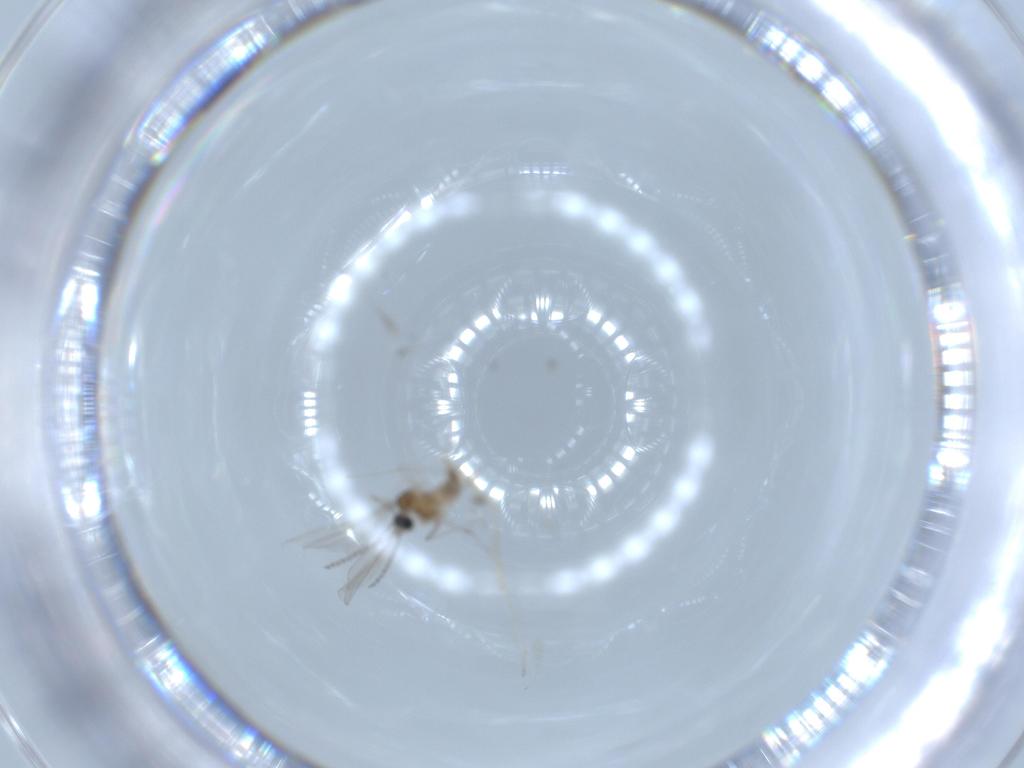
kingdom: Animalia
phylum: Arthropoda
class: Insecta
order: Diptera
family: Cecidomyiidae
